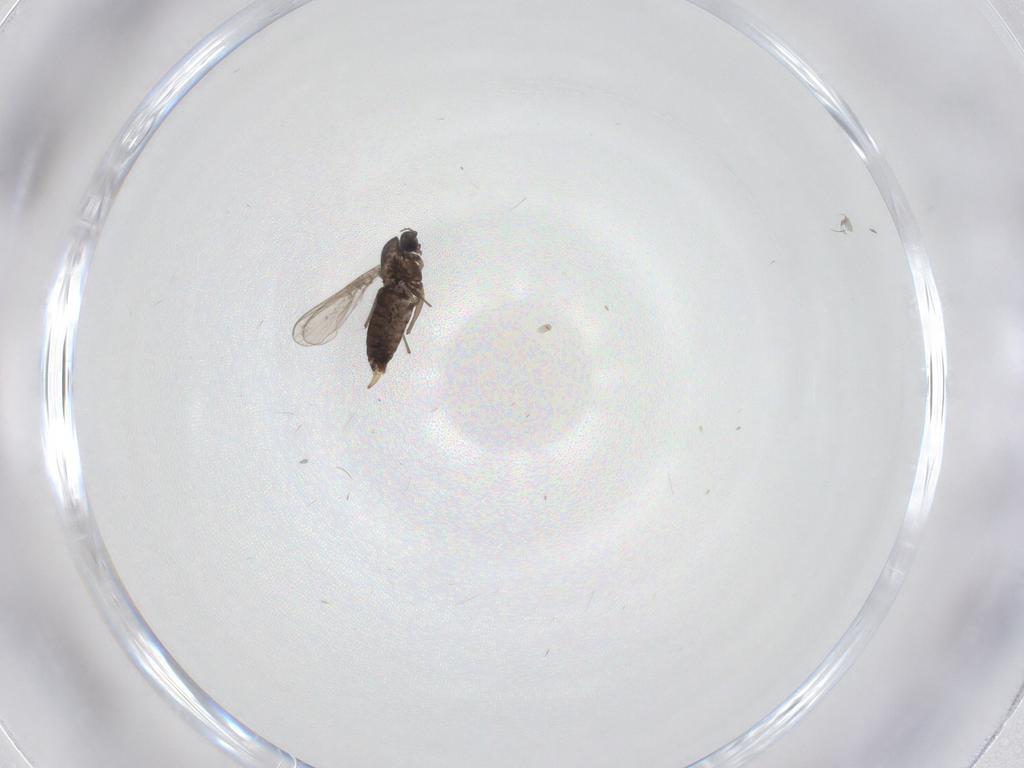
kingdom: Animalia
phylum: Arthropoda
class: Insecta
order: Diptera
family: Chironomidae
